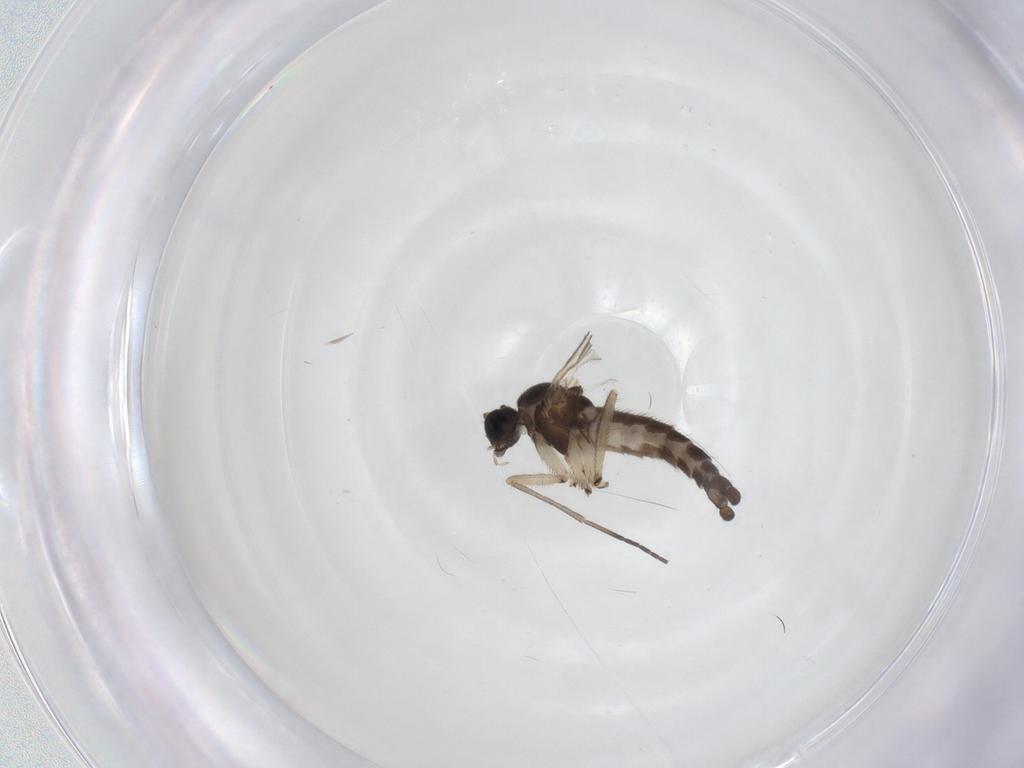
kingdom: Animalia
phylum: Arthropoda
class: Insecta
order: Diptera
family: Sciaridae
